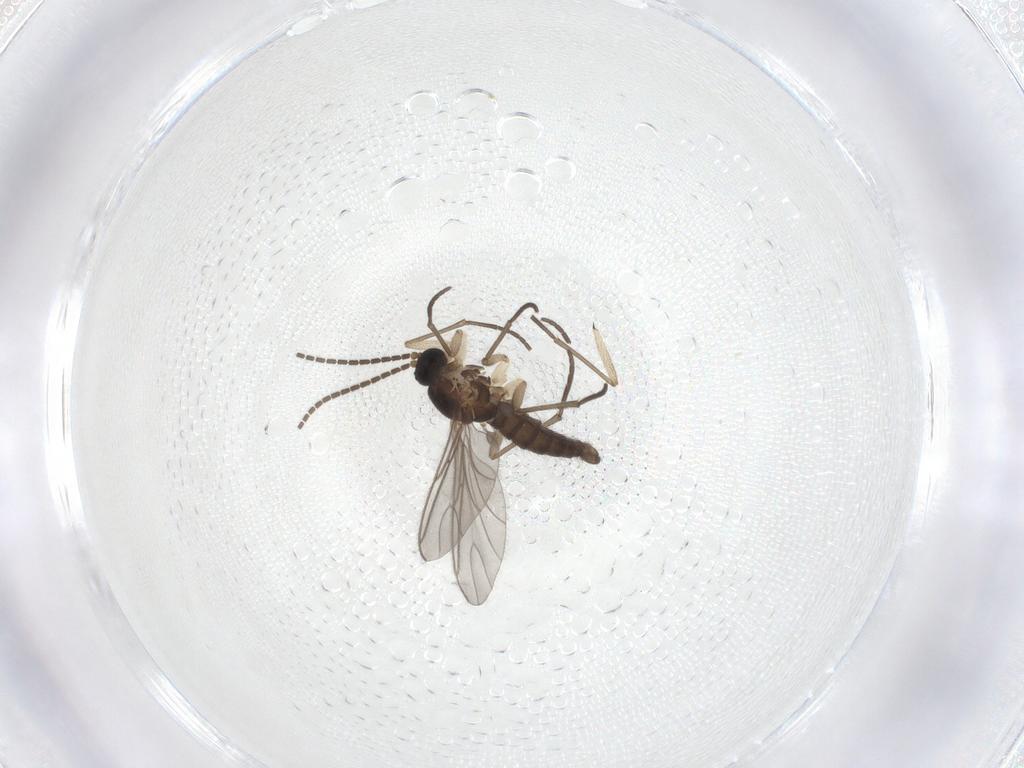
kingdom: Animalia
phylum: Arthropoda
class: Insecta
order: Diptera
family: Sciaridae
